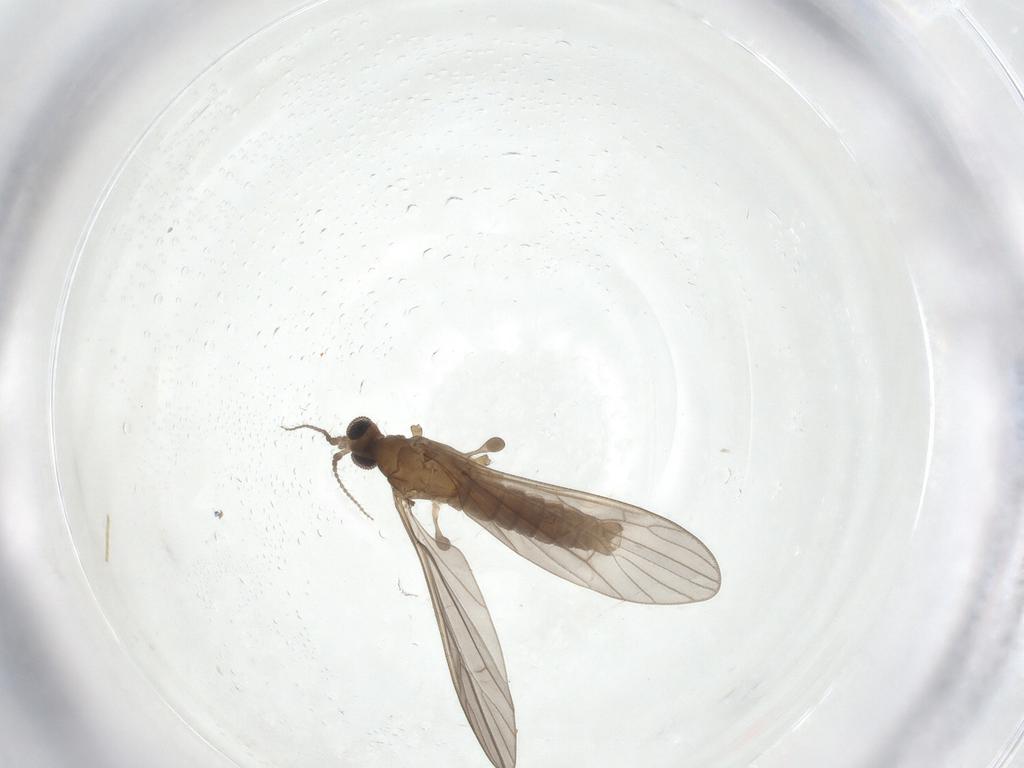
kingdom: Animalia
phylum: Arthropoda
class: Insecta
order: Diptera
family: Limoniidae
